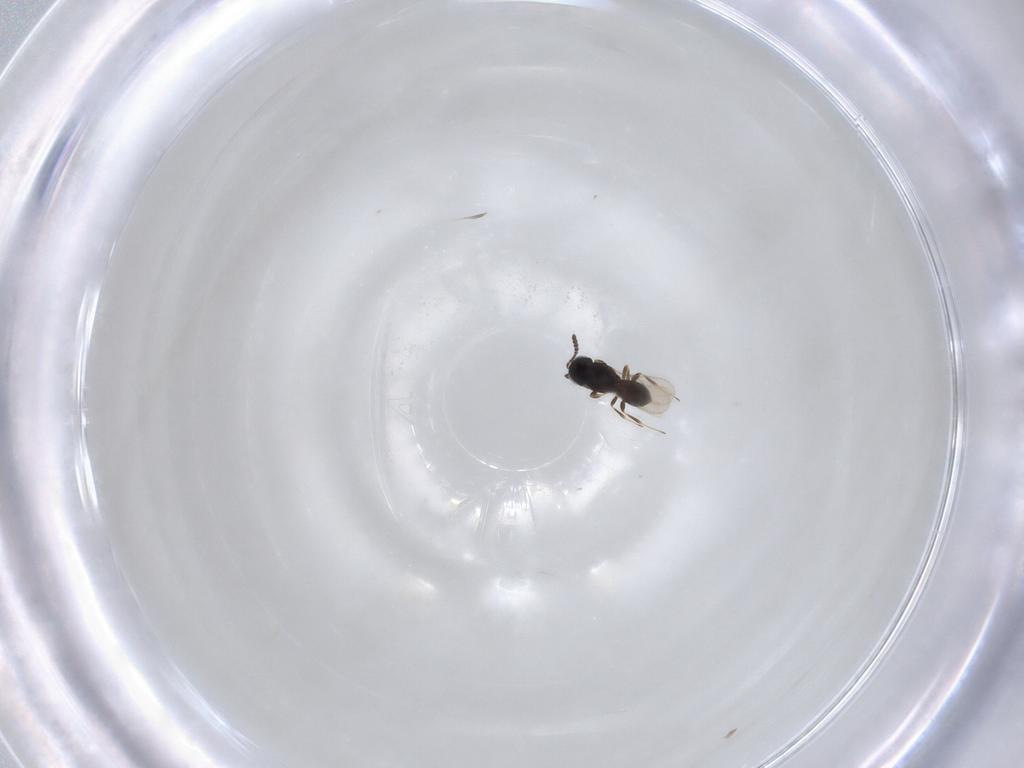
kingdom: Animalia
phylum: Arthropoda
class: Insecta
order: Hymenoptera
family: Scelionidae
